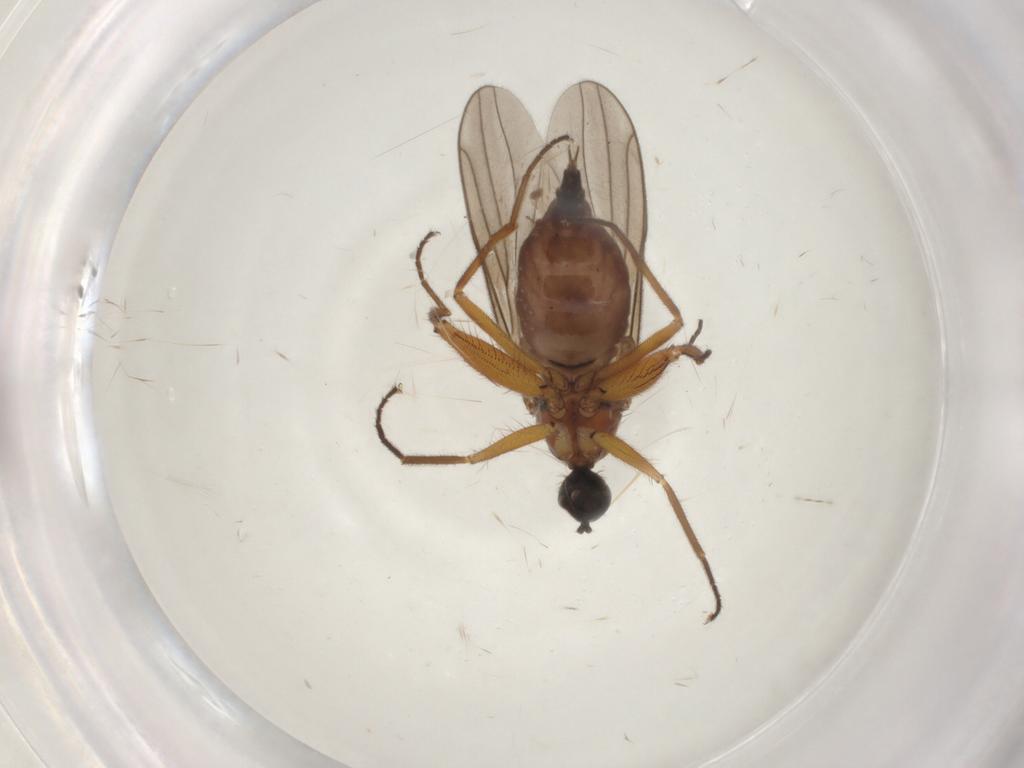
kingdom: Animalia
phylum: Arthropoda
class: Insecta
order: Diptera
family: Hybotidae
